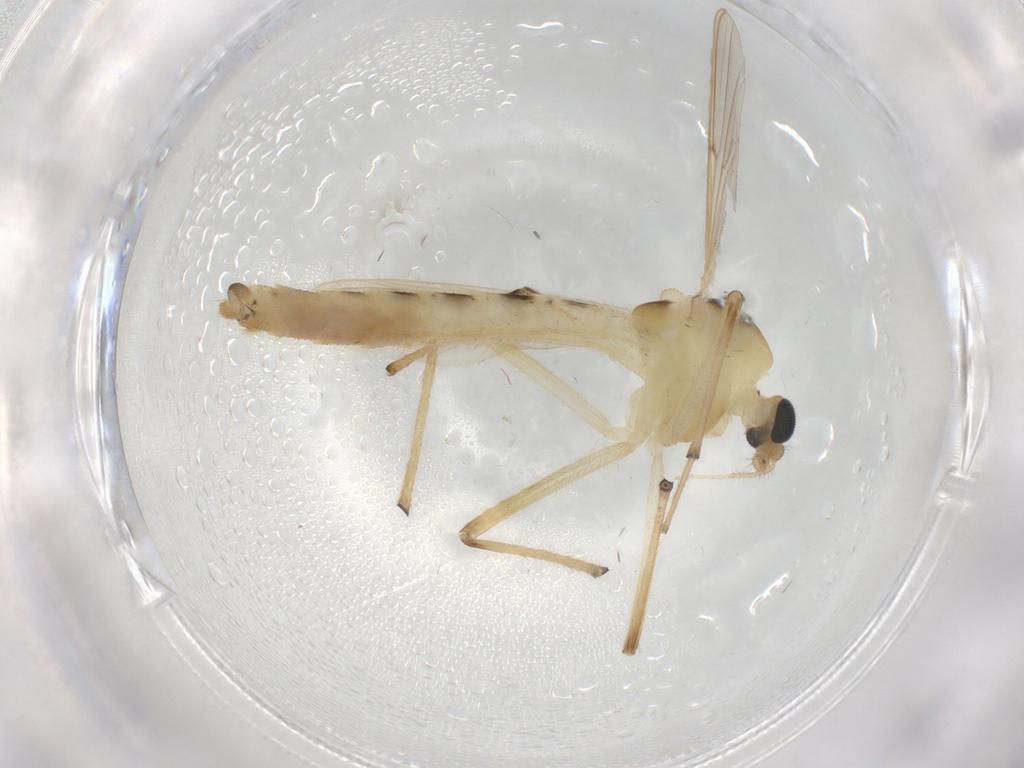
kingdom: Animalia
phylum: Arthropoda
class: Insecta
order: Diptera
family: Chironomidae
